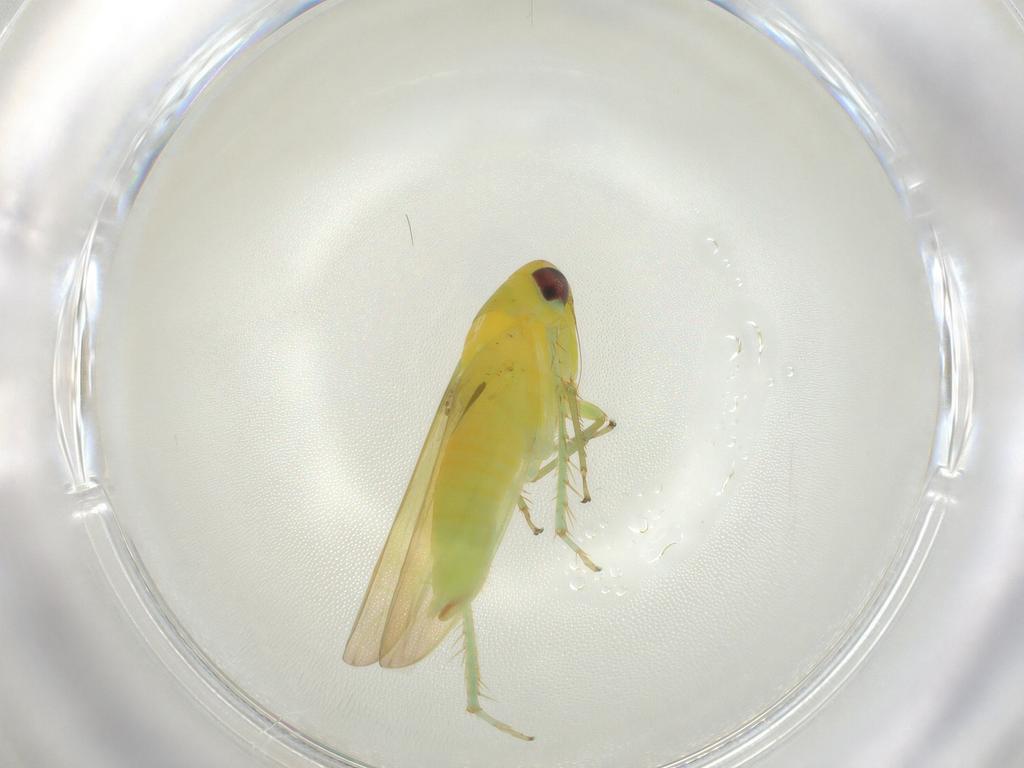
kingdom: Animalia
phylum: Arthropoda
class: Insecta
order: Hemiptera
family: Cicadellidae
